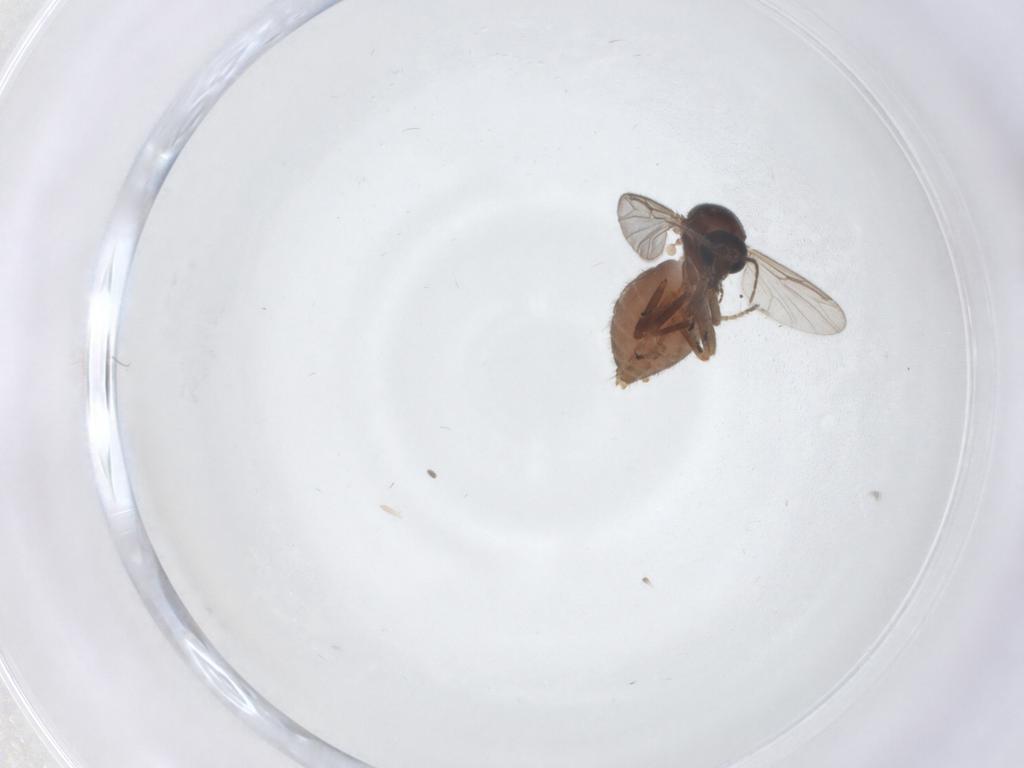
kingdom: Animalia
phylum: Arthropoda
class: Insecta
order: Diptera
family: Ceratopogonidae
